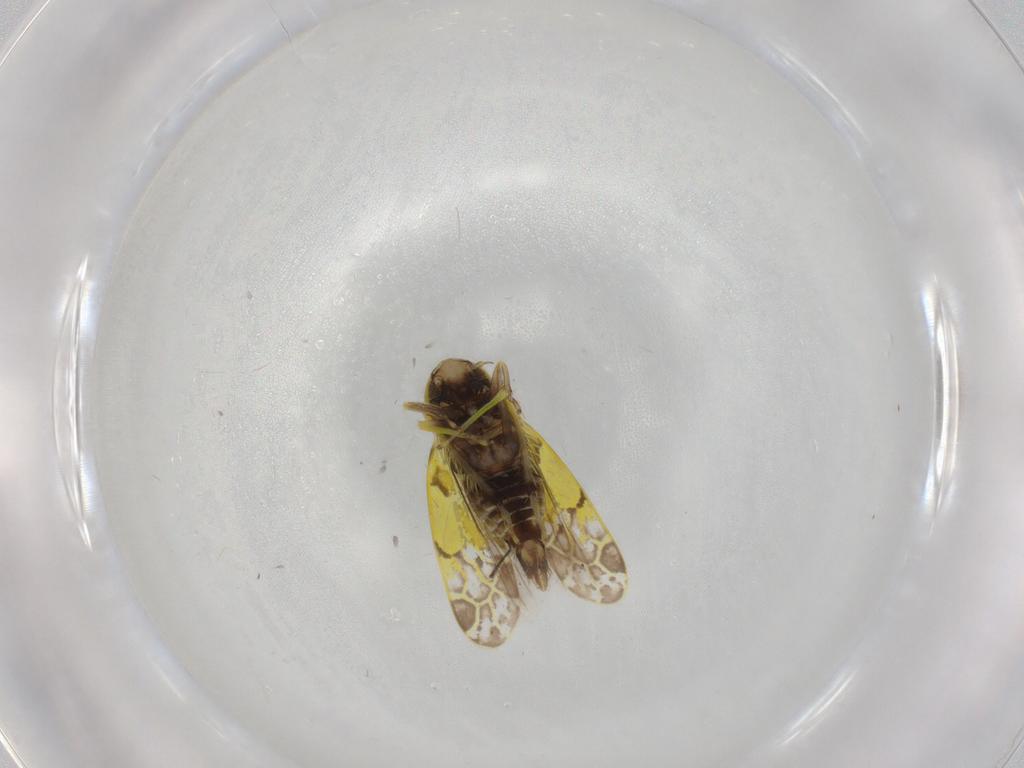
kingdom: Animalia
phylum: Arthropoda
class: Insecta
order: Hemiptera
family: Cicadellidae
